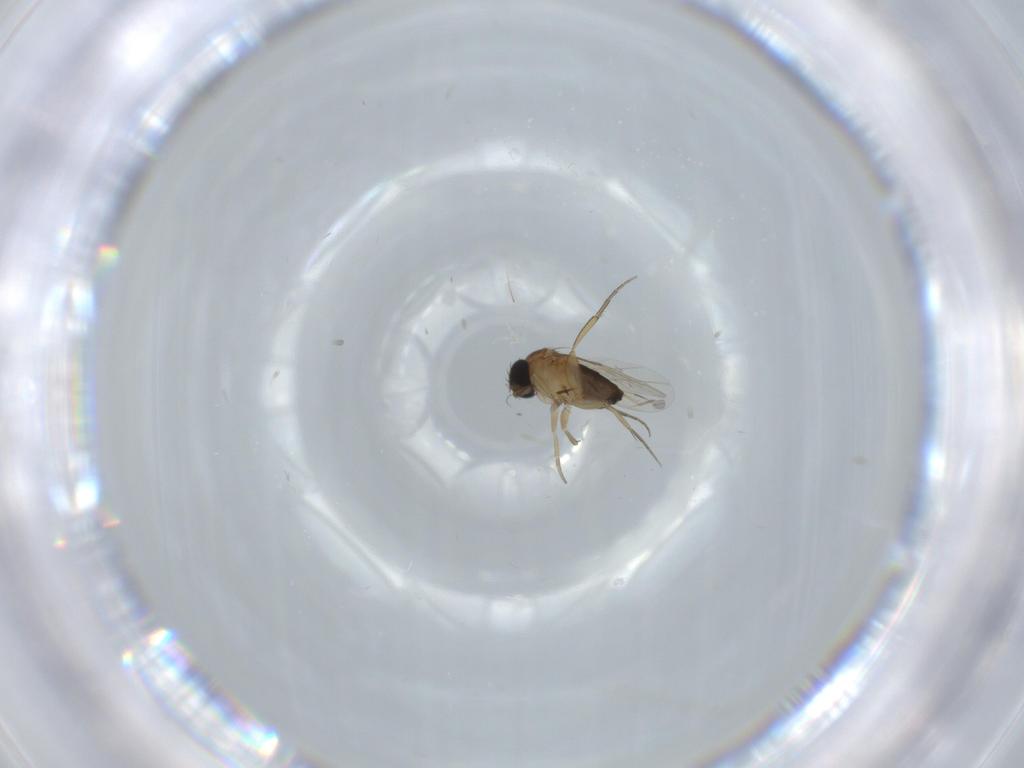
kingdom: Animalia
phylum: Arthropoda
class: Insecta
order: Diptera
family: Phoridae
